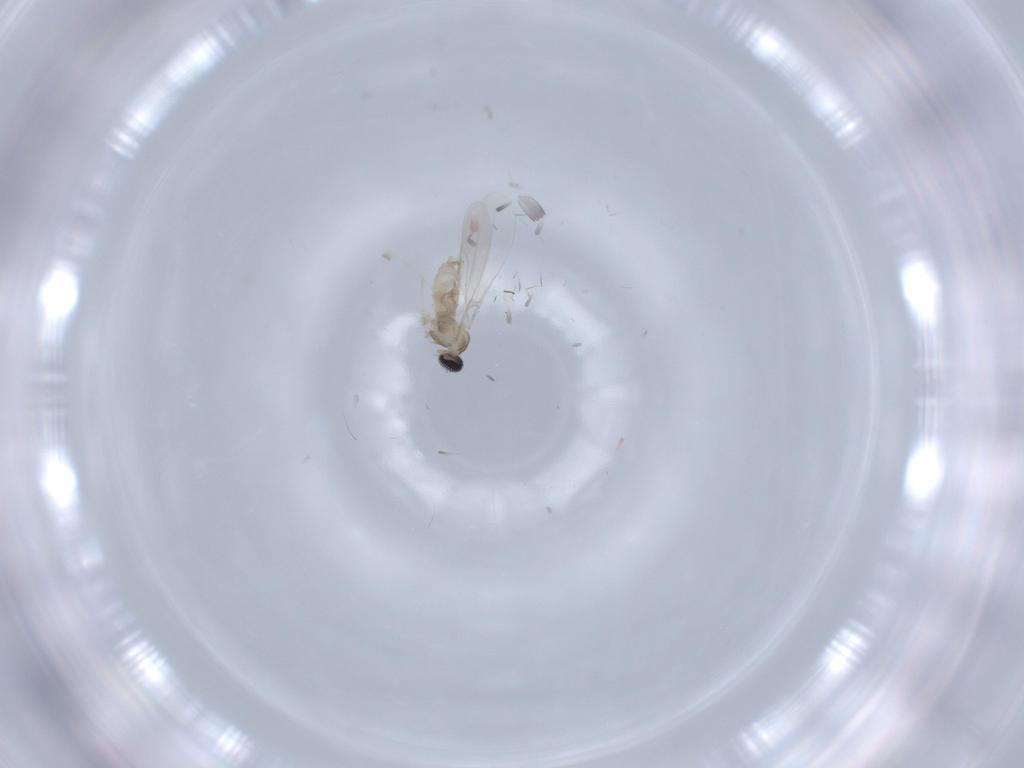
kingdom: Animalia
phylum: Arthropoda
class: Insecta
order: Diptera
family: Chironomidae
